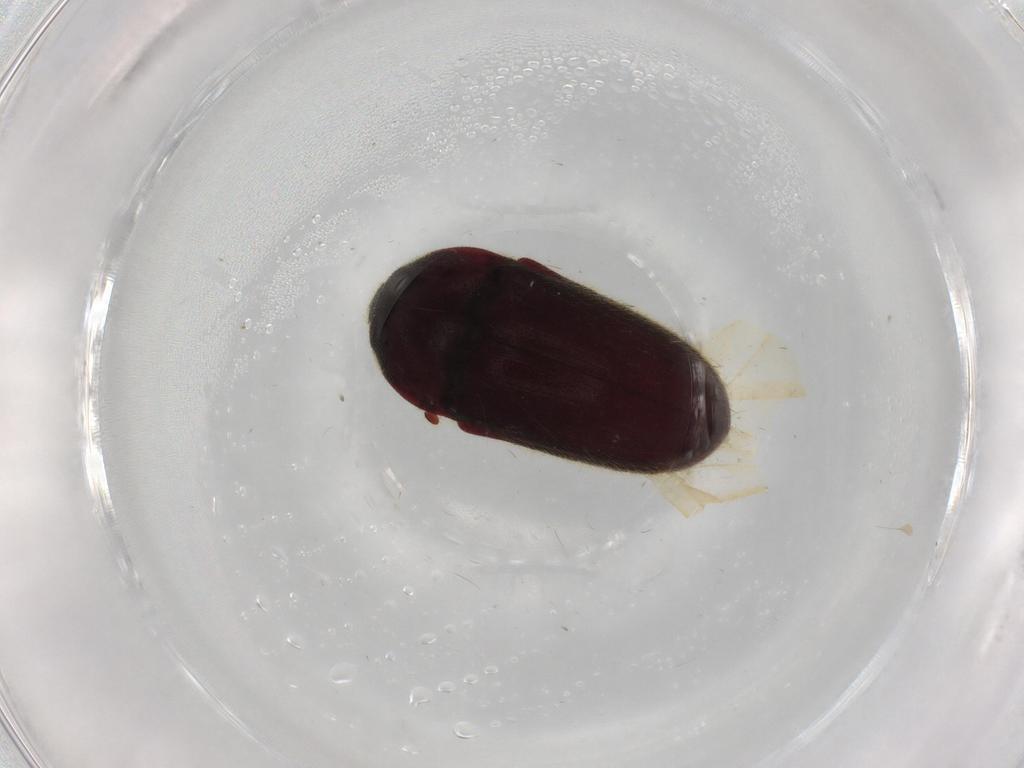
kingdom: Animalia
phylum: Arthropoda
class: Insecta
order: Coleoptera
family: Throscidae
